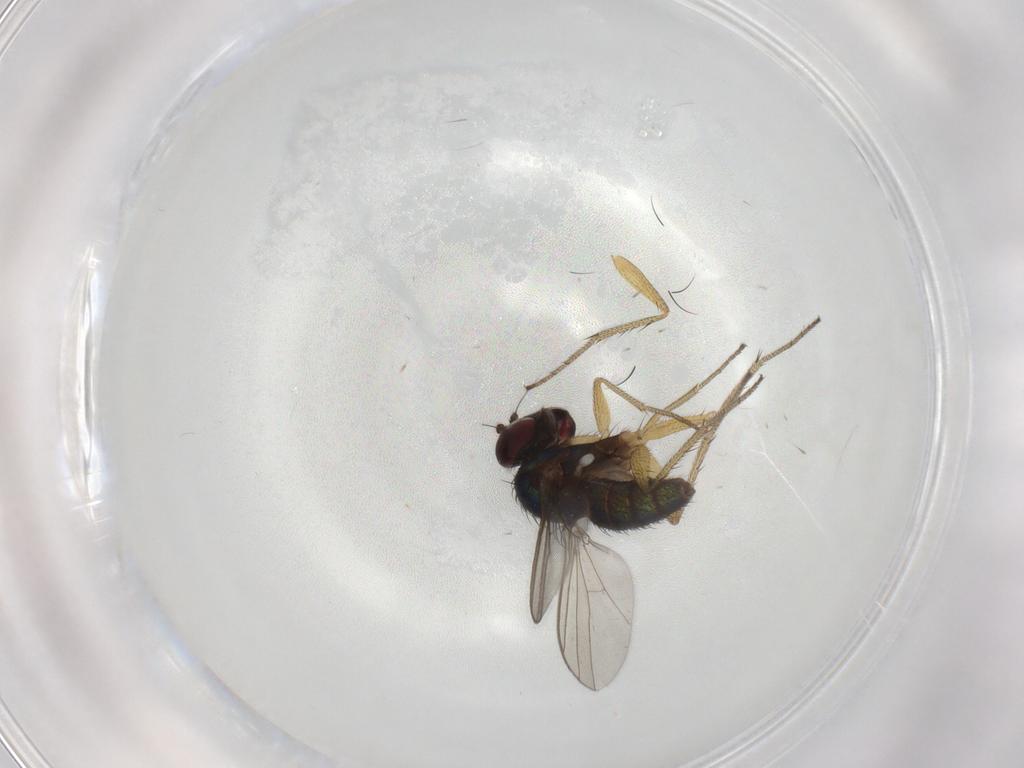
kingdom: Animalia
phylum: Arthropoda
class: Insecta
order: Diptera
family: Dolichopodidae
